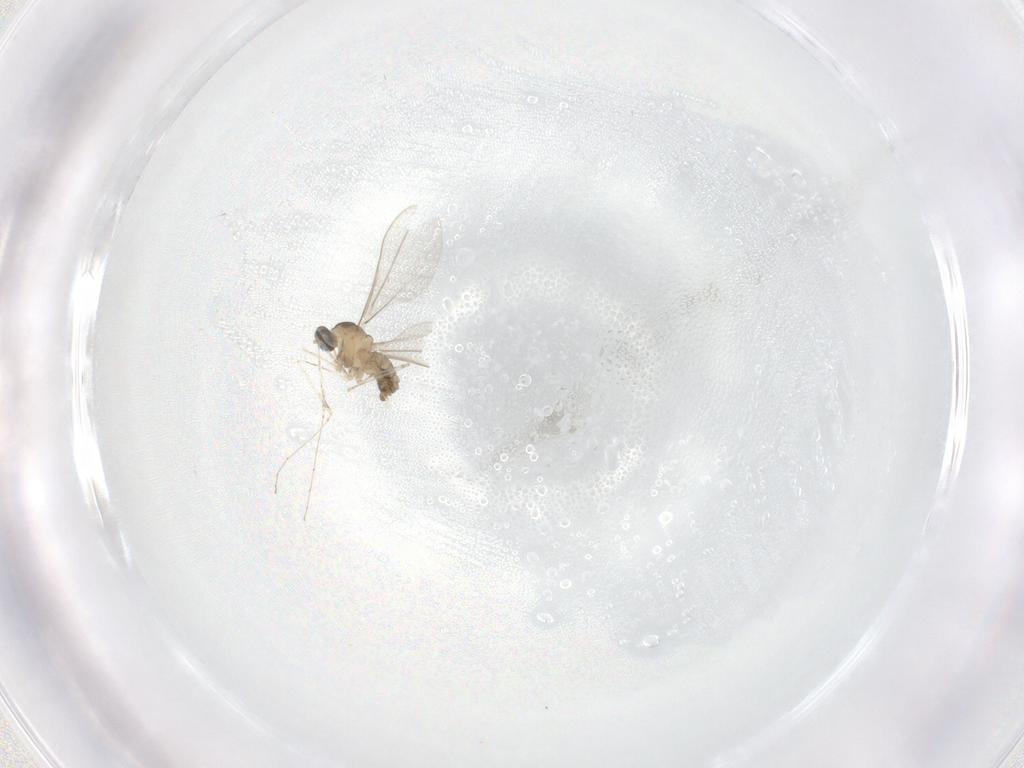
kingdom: Animalia
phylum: Arthropoda
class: Insecta
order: Diptera
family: Cecidomyiidae
